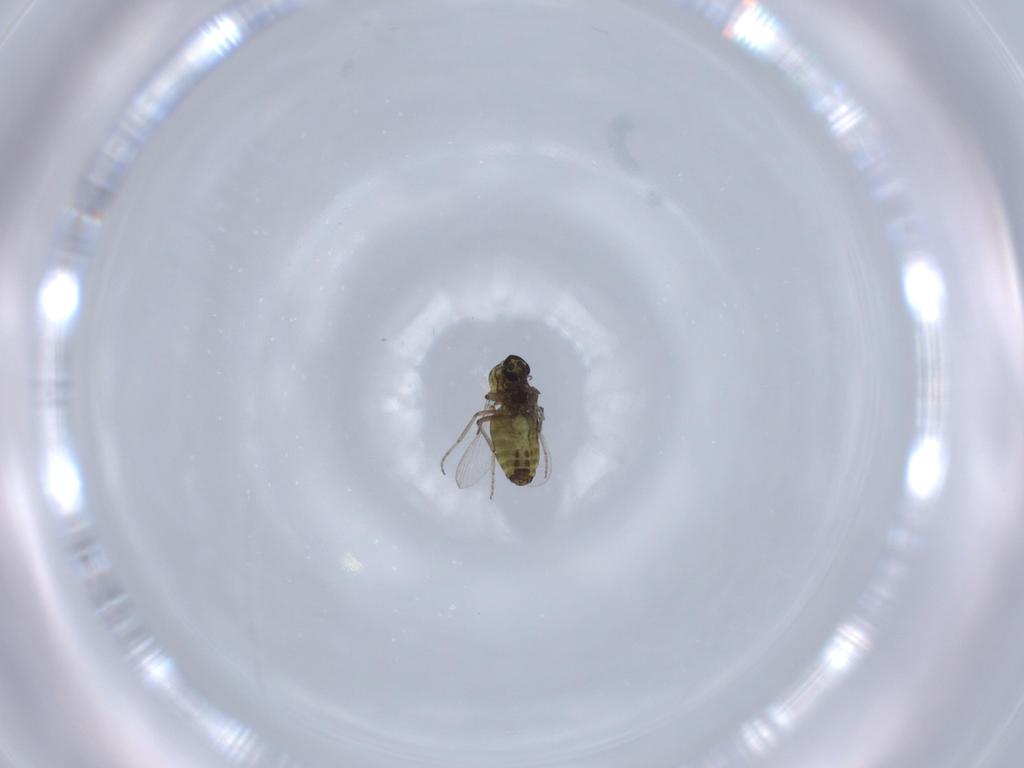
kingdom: Animalia
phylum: Arthropoda
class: Insecta
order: Diptera
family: Ceratopogonidae
